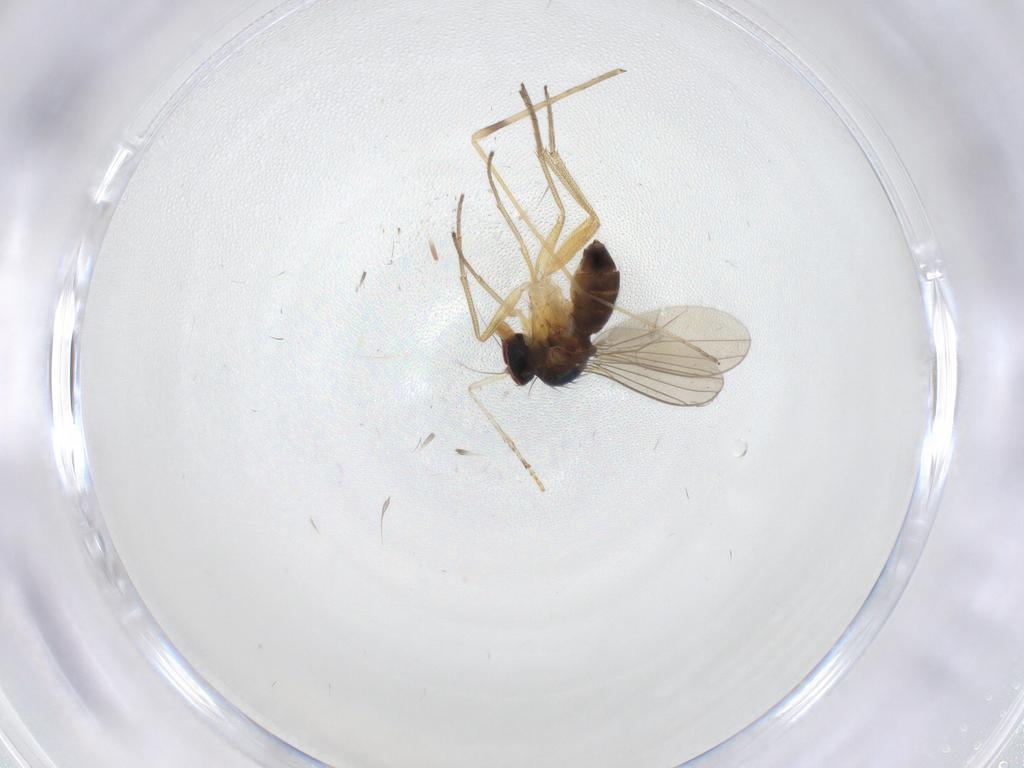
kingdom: Animalia
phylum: Arthropoda
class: Insecta
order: Diptera
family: Dolichopodidae
